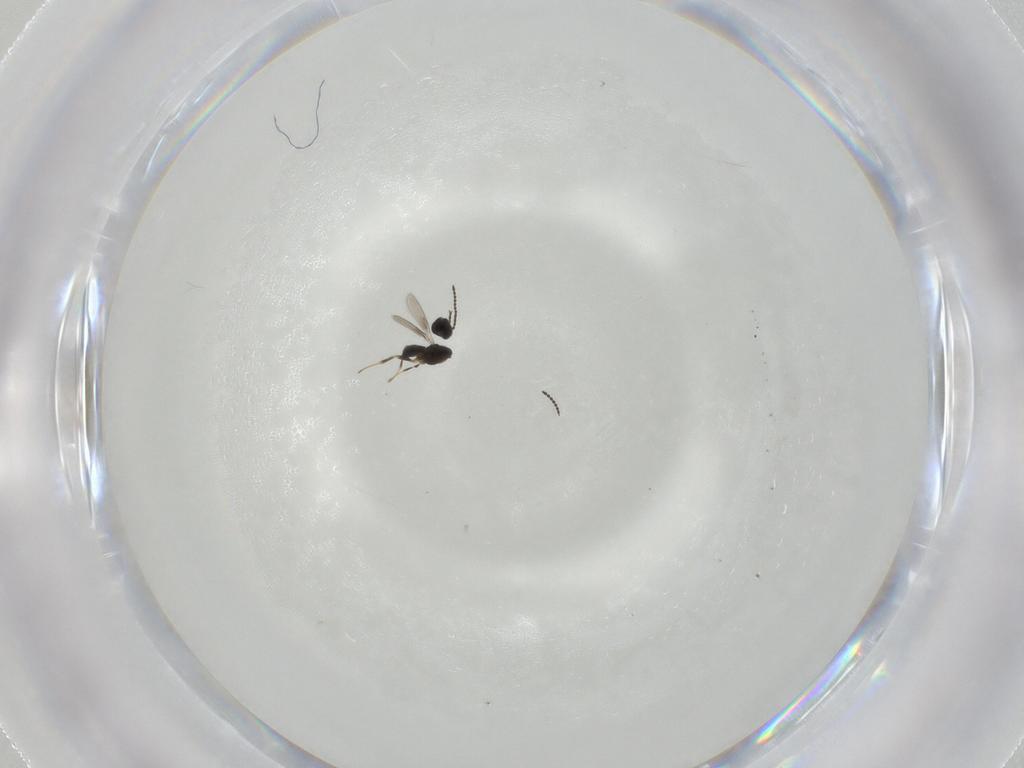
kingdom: Animalia
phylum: Arthropoda
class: Insecta
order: Hymenoptera
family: Scelionidae
